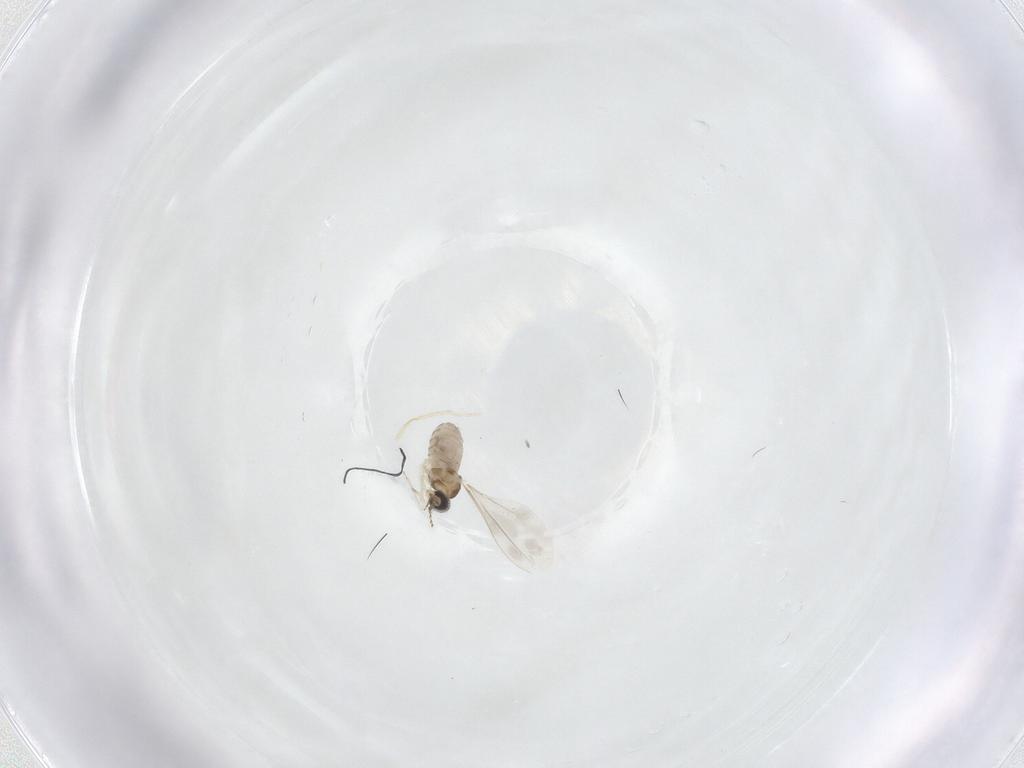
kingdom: Animalia
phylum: Arthropoda
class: Insecta
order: Diptera
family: Cecidomyiidae
